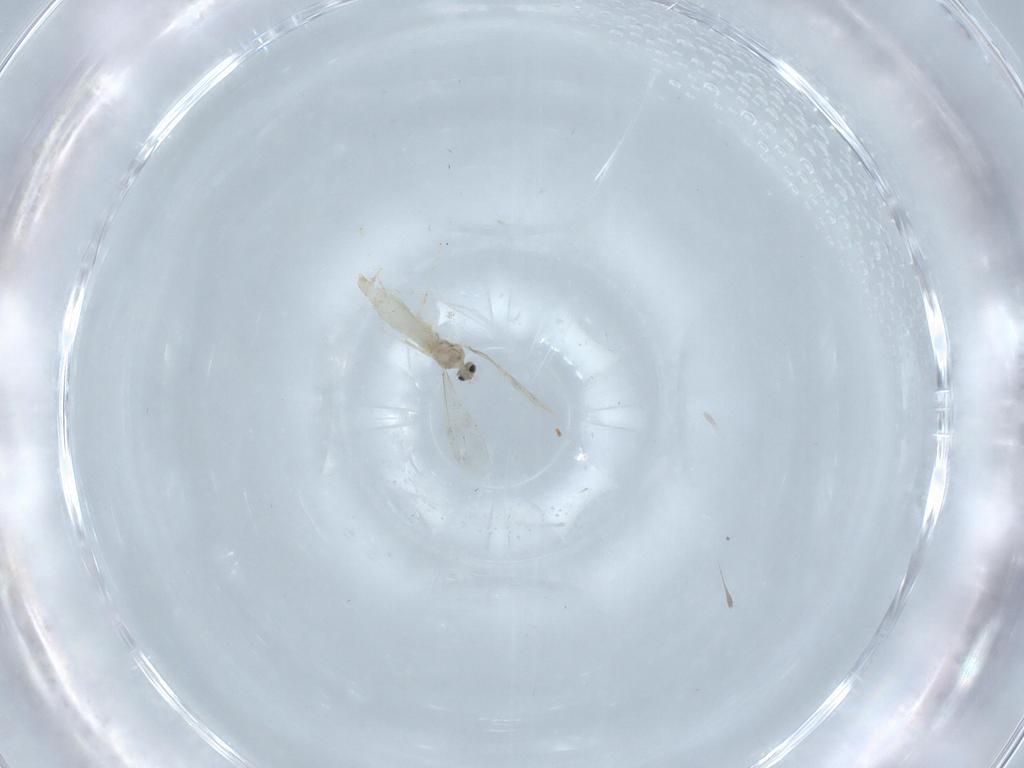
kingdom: Animalia
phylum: Arthropoda
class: Insecta
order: Diptera
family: Cecidomyiidae
